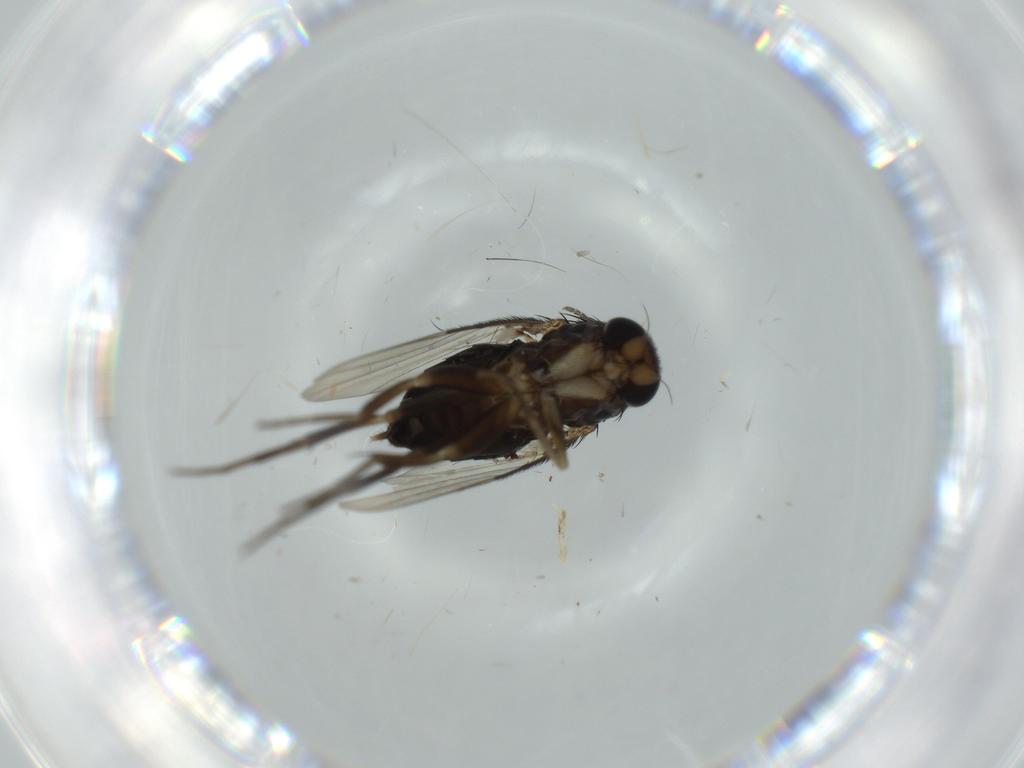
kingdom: Animalia
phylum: Arthropoda
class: Insecta
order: Diptera
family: Phoridae
